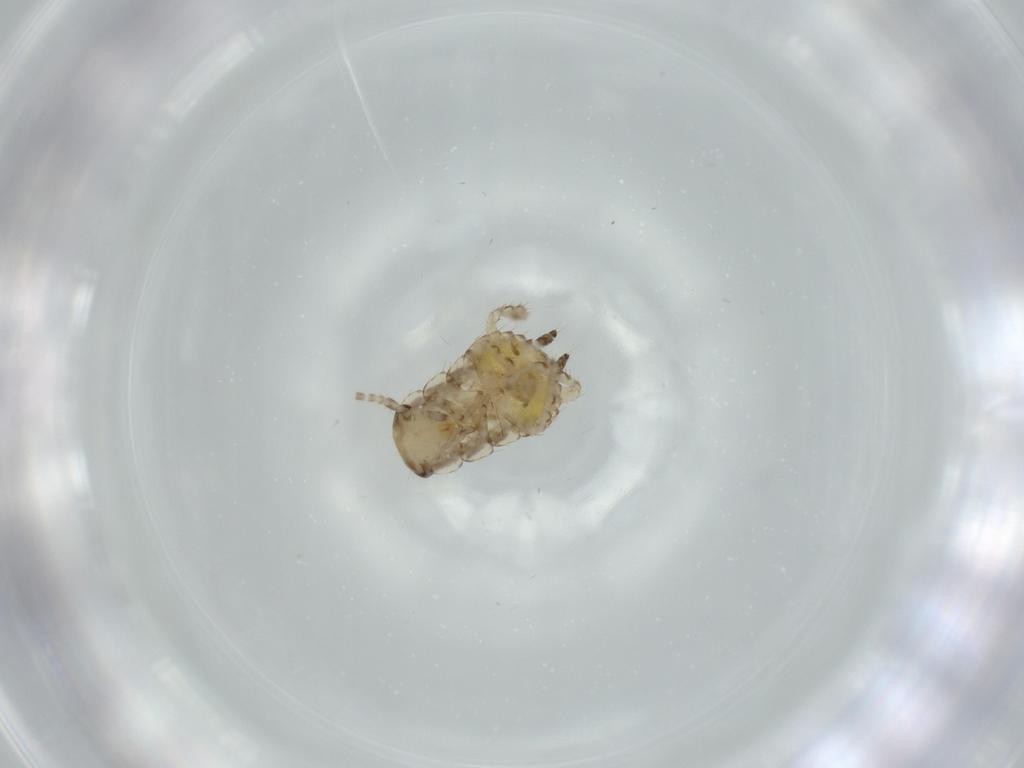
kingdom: Animalia
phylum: Arthropoda
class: Insecta
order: Blattodea
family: Ectobiidae
